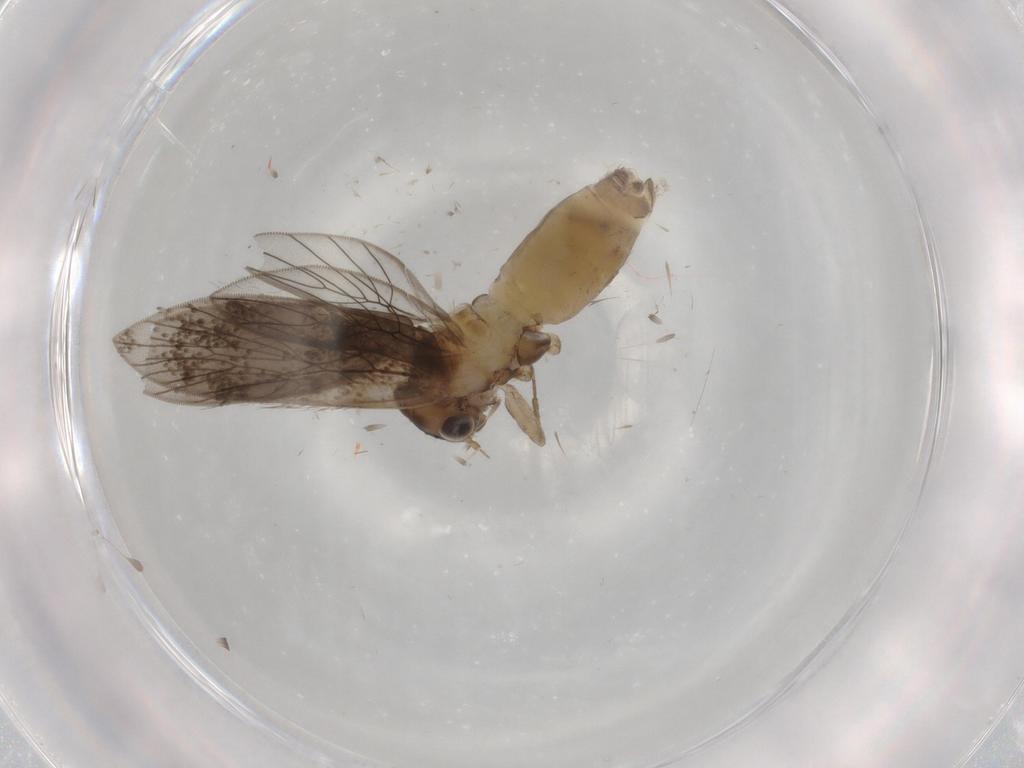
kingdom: Animalia
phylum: Arthropoda
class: Insecta
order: Psocodea
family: Lepidopsocidae
